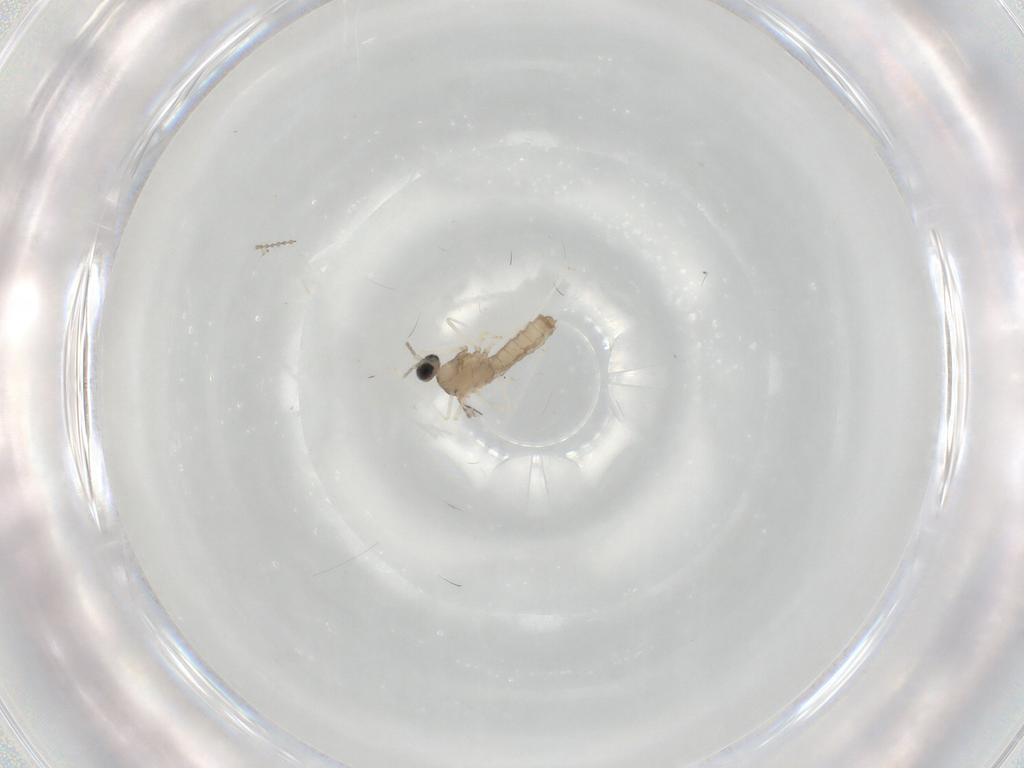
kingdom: Animalia
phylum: Arthropoda
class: Insecta
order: Diptera
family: Cecidomyiidae
